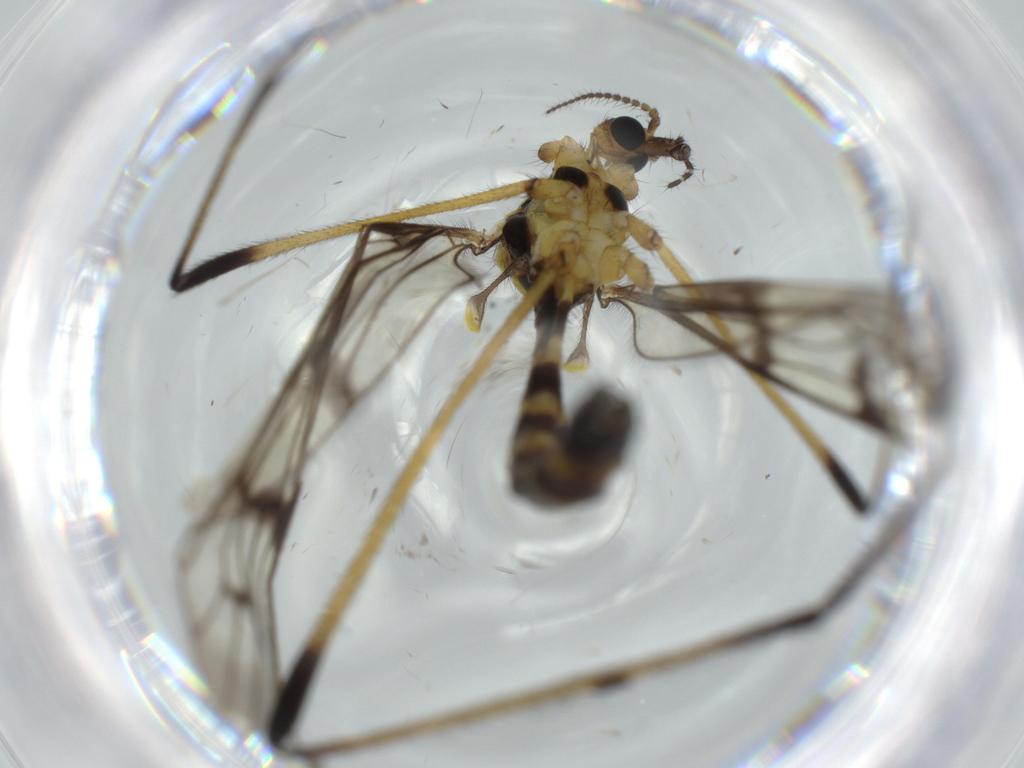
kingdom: Animalia
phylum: Arthropoda
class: Insecta
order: Diptera
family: Limoniidae
